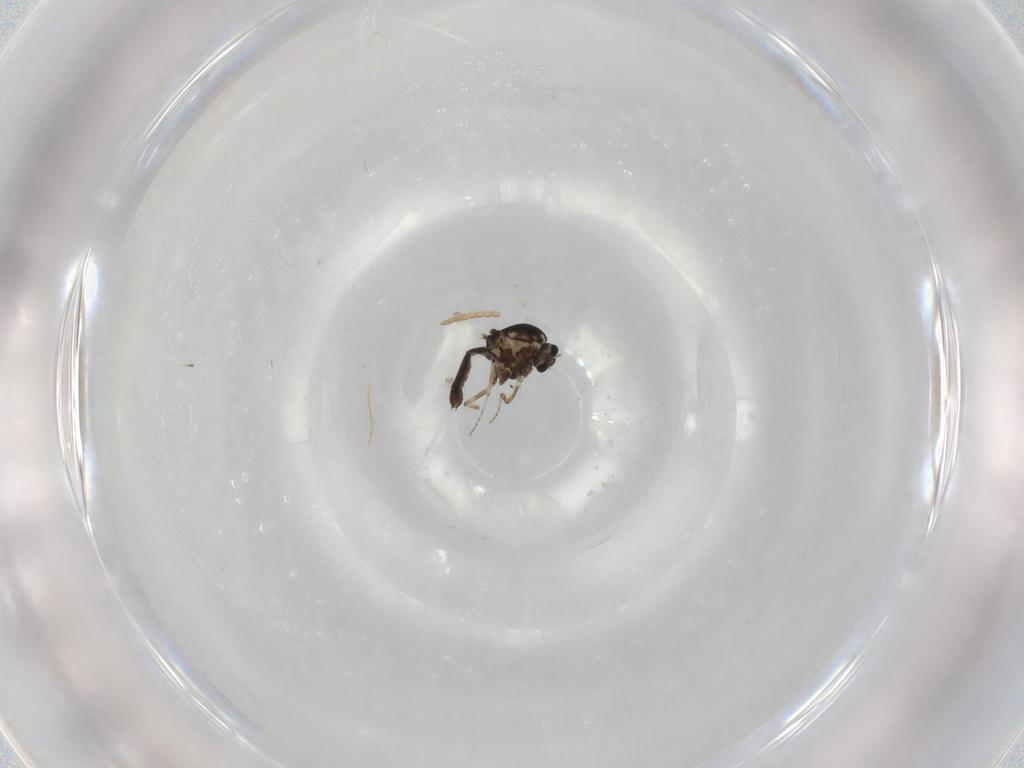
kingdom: Animalia
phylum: Arthropoda
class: Insecta
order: Diptera
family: Ceratopogonidae
